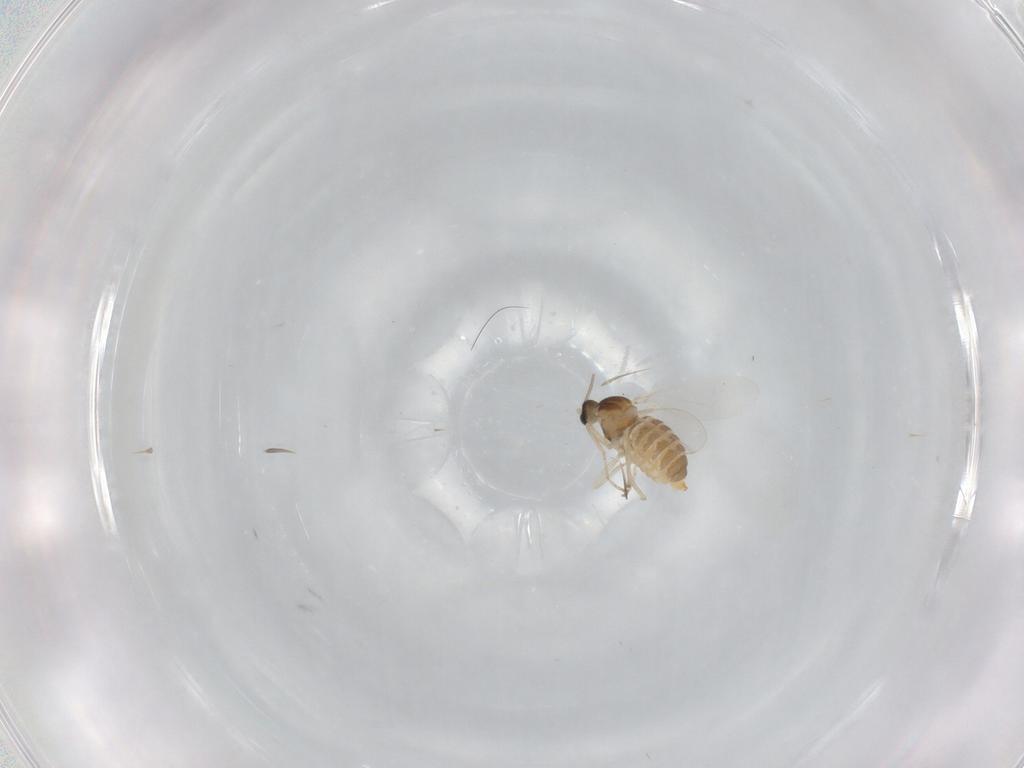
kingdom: Animalia
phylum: Arthropoda
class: Insecta
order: Diptera
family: Cecidomyiidae
